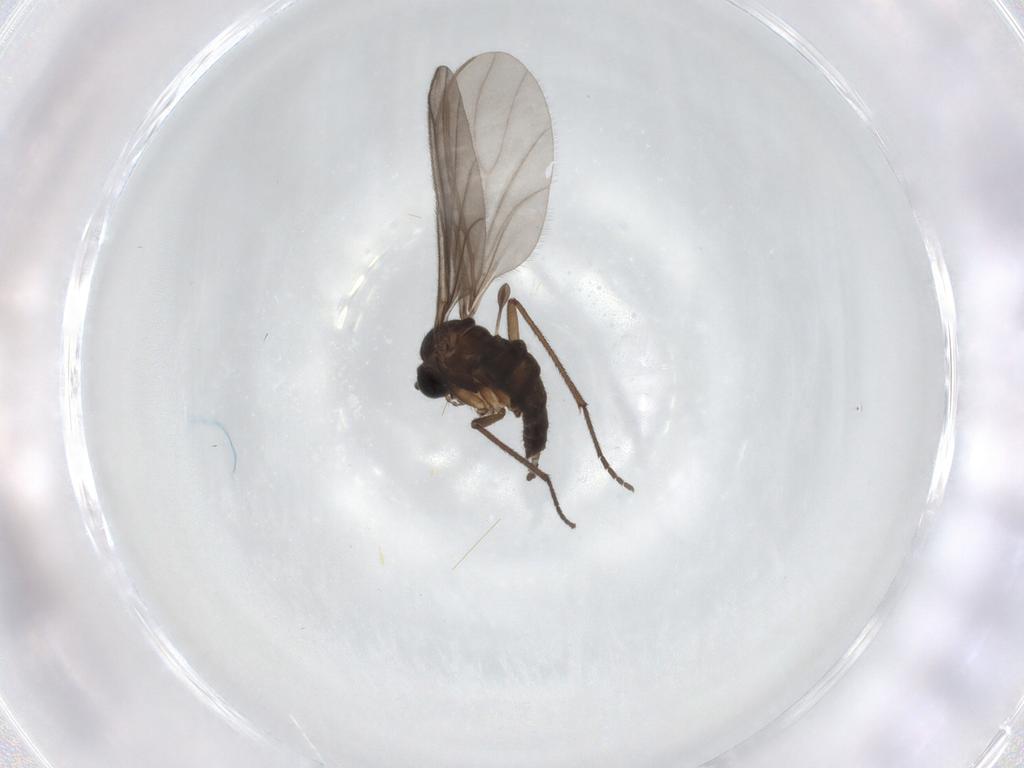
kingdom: Animalia
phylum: Arthropoda
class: Insecta
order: Diptera
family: Sciaridae
